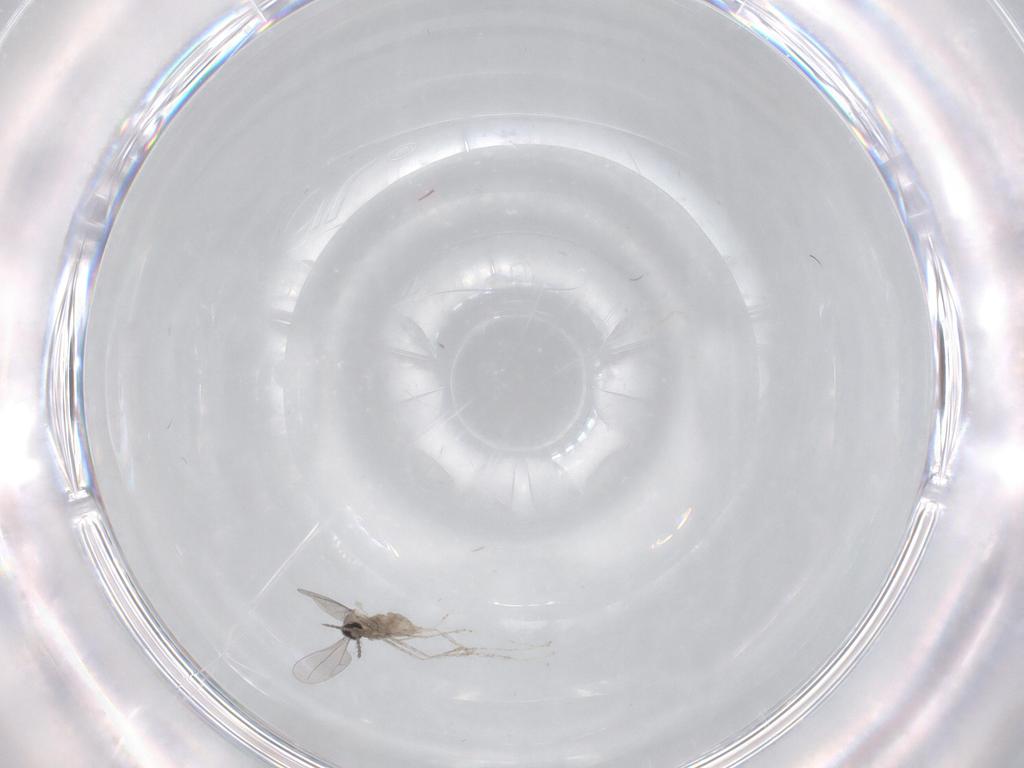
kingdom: Animalia
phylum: Arthropoda
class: Insecta
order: Diptera
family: Cecidomyiidae
